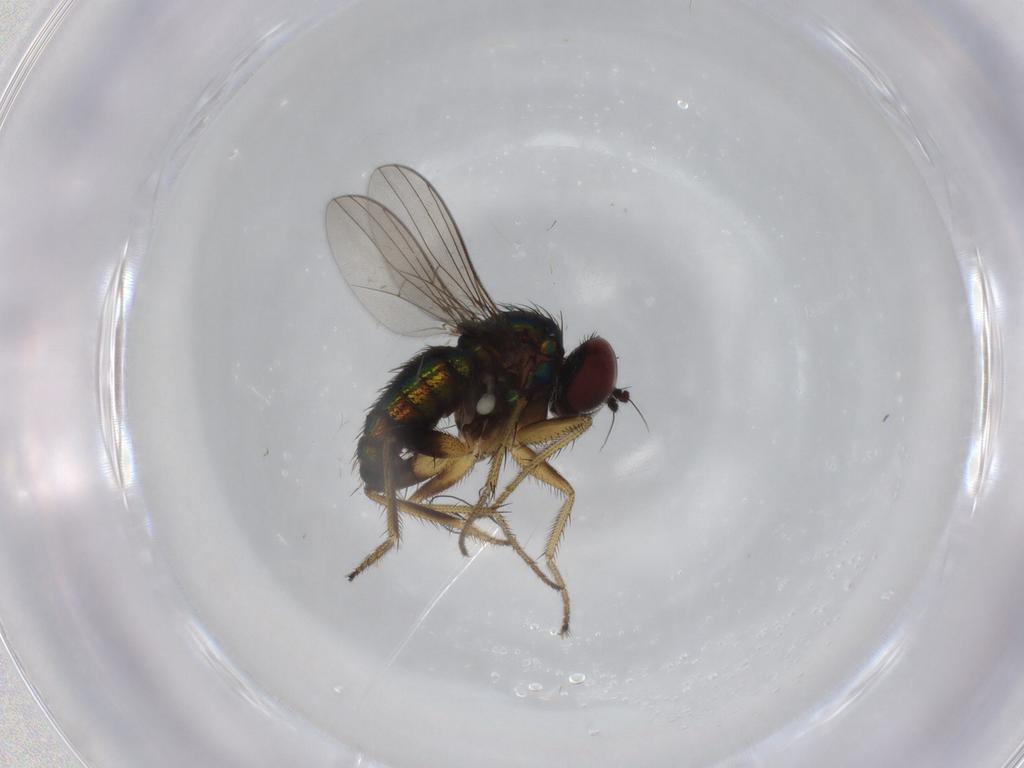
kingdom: Animalia
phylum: Arthropoda
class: Insecta
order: Diptera
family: Dolichopodidae
